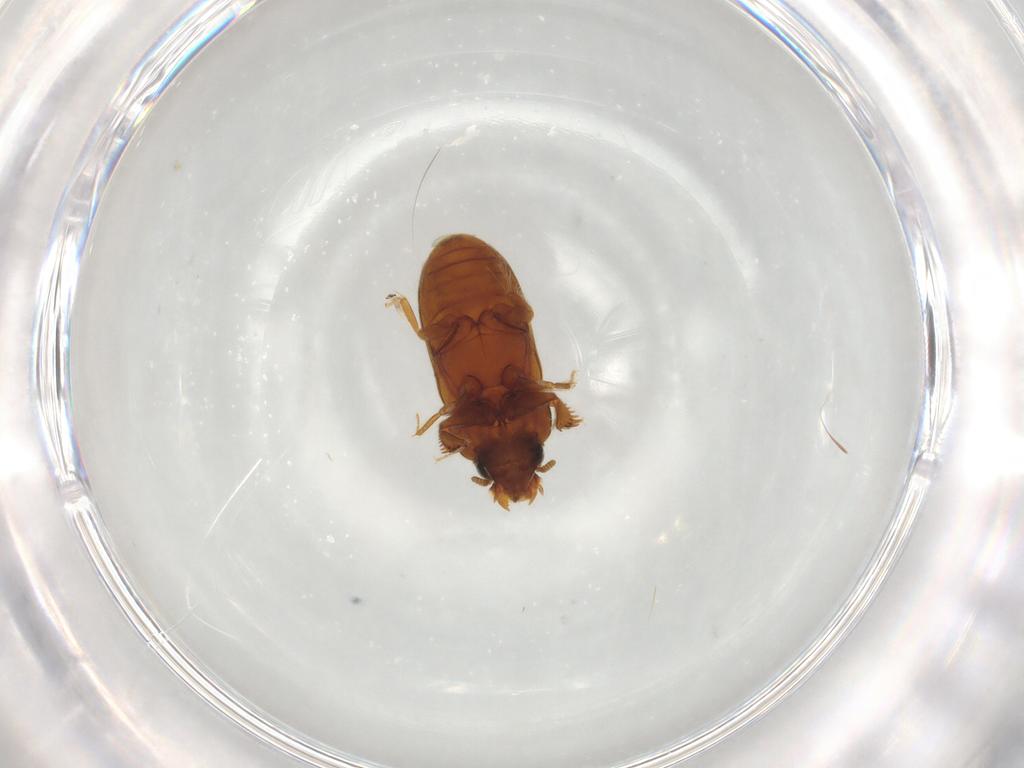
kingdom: Animalia
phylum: Arthropoda
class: Insecta
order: Coleoptera
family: Heteroceridae
